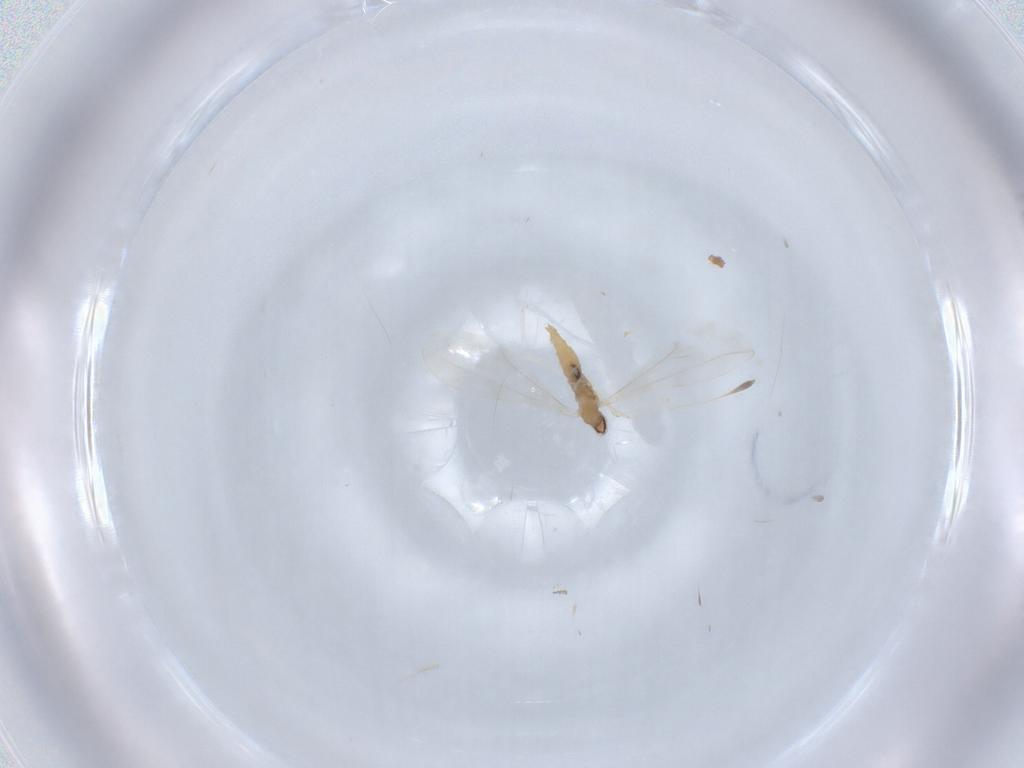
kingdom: Animalia
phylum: Arthropoda
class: Insecta
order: Diptera
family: Cecidomyiidae
